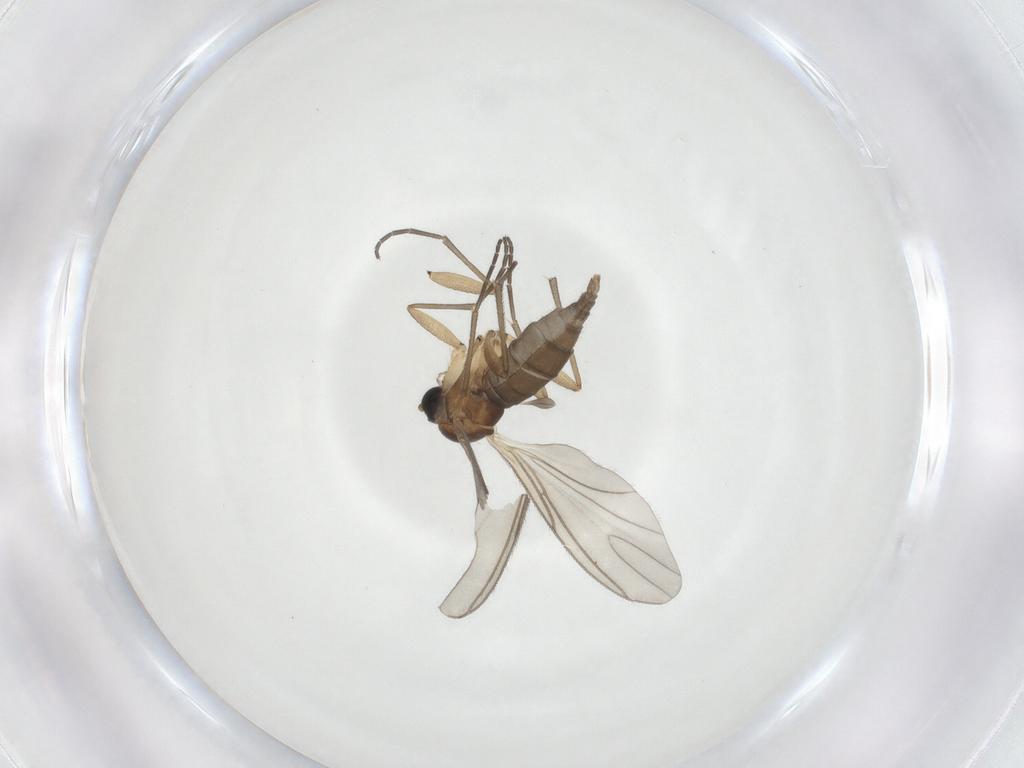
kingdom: Animalia
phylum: Arthropoda
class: Insecta
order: Diptera
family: Sciaridae
